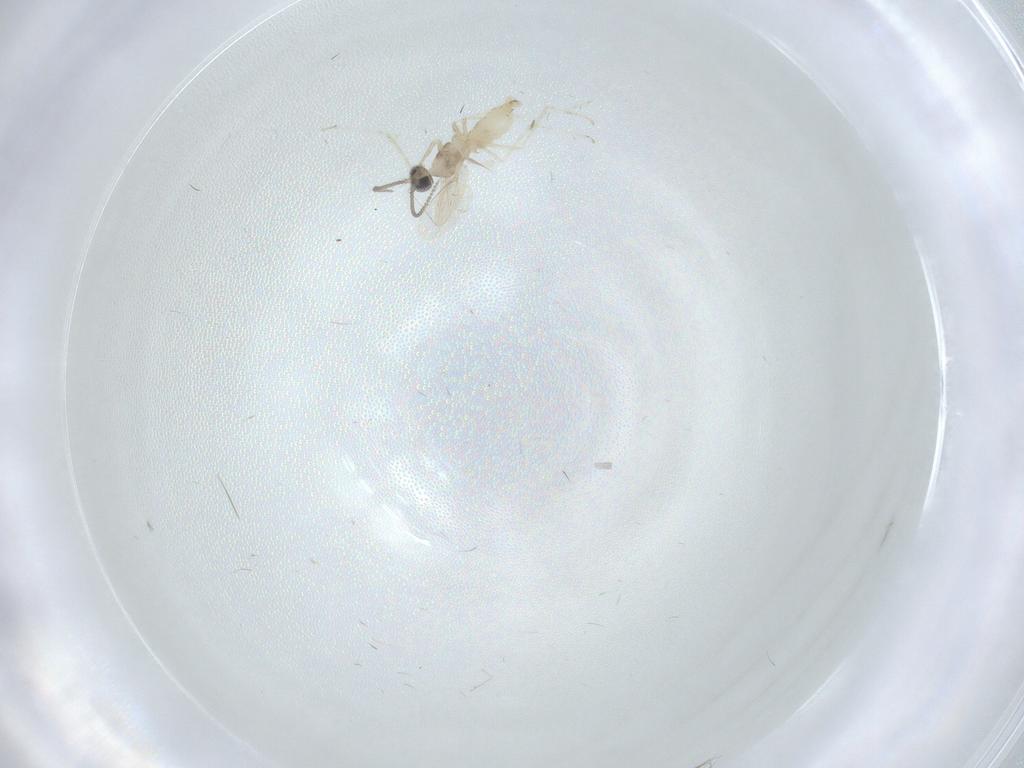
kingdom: Animalia
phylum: Arthropoda
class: Insecta
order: Diptera
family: Cecidomyiidae
